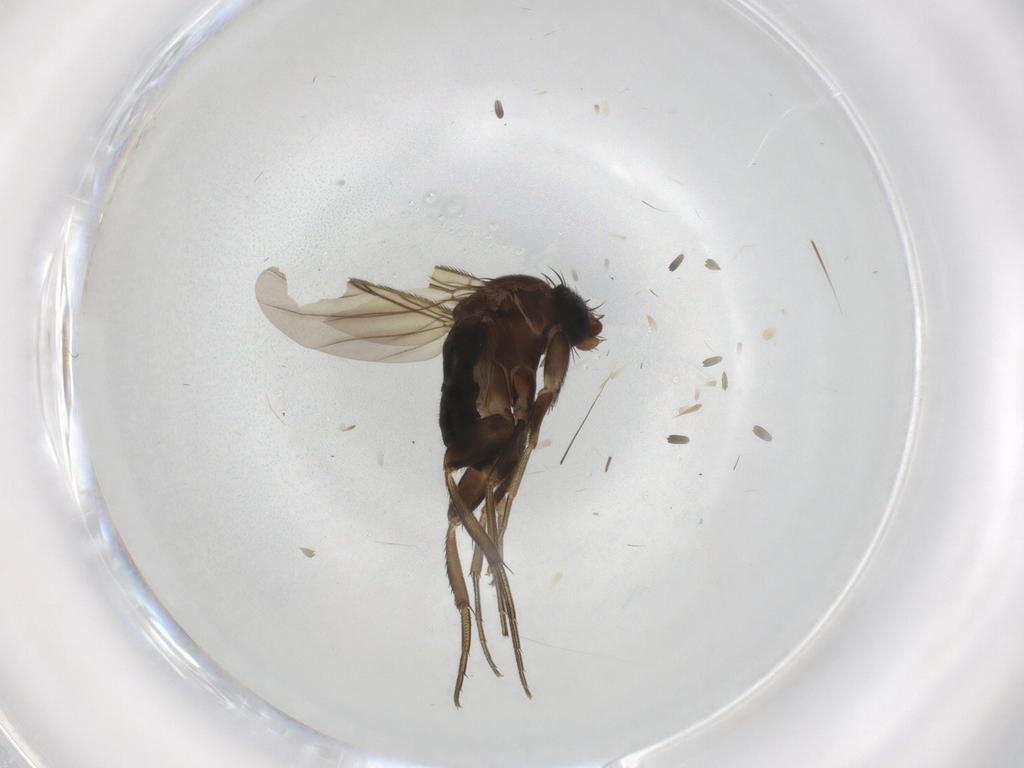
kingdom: Animalia
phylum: Arthropoda
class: Insecta
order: Diptera
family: Phoridae
